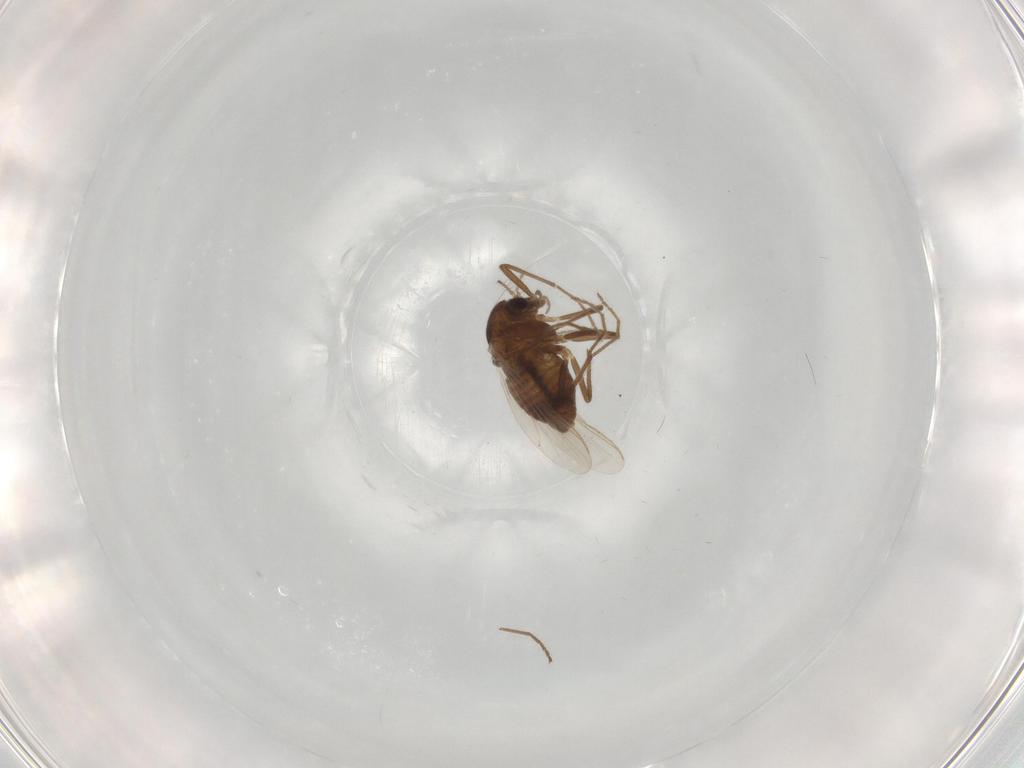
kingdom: Animalia
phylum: Arthropoda
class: Insecta
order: Diptera
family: Chironomidae
